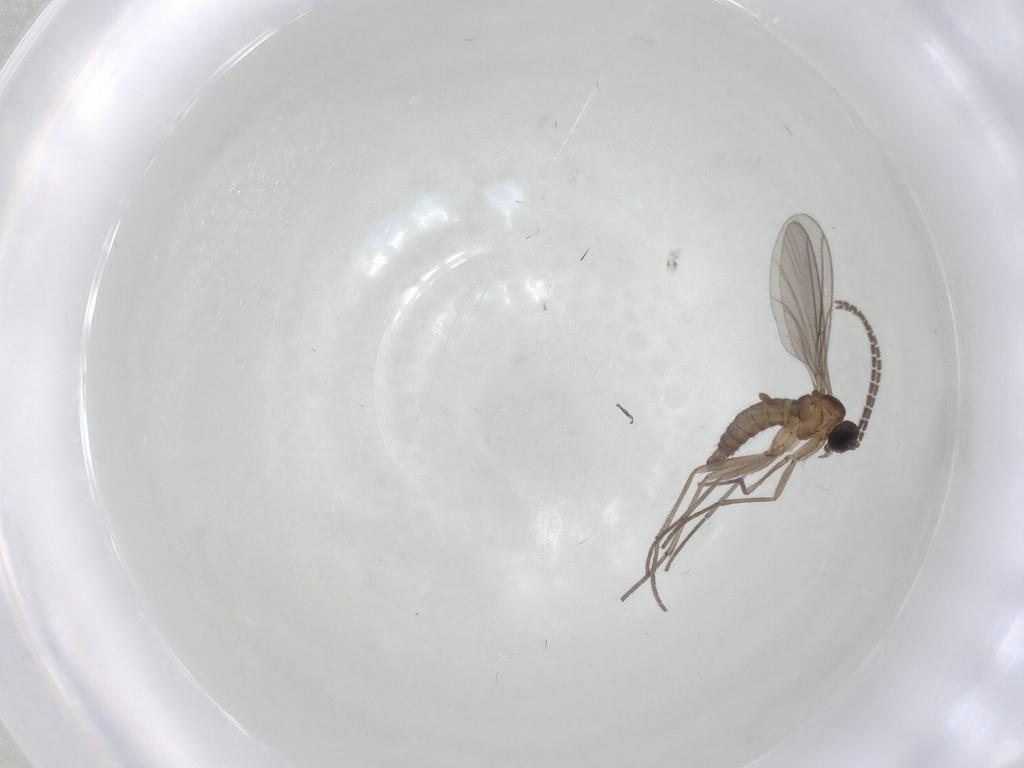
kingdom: Animalia
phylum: Arthropoda
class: Insecta
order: Diptera
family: Sciaridae
